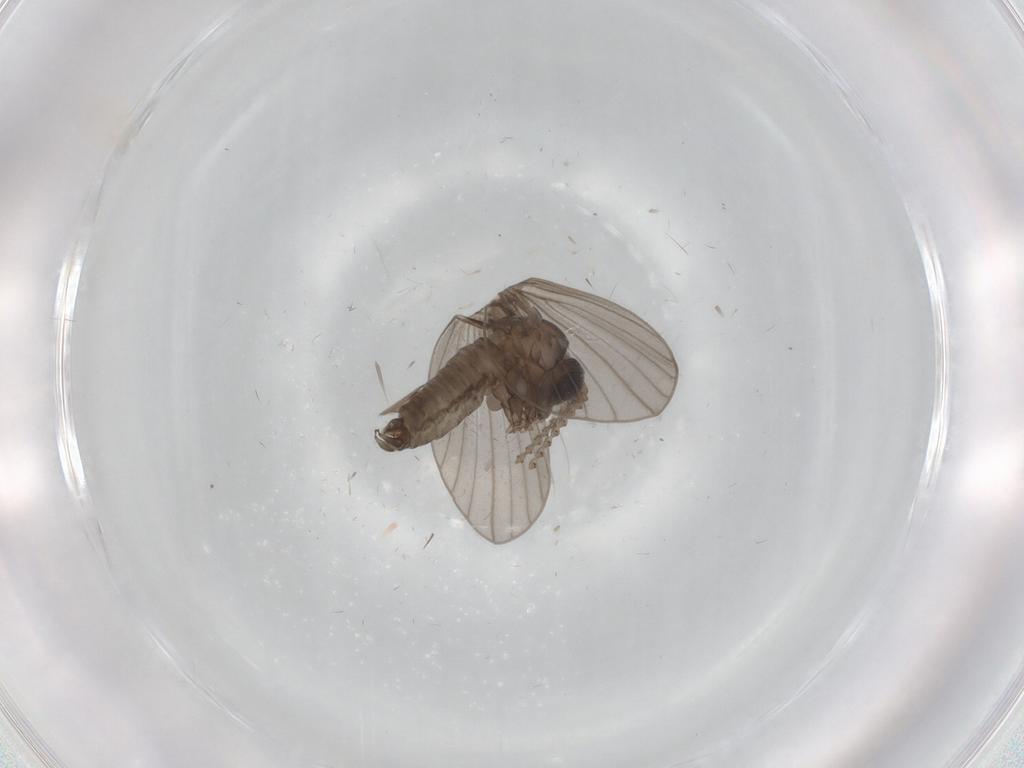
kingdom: Animalia
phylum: Arthropoda
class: Insecta
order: Diptera
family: Psychodidae
